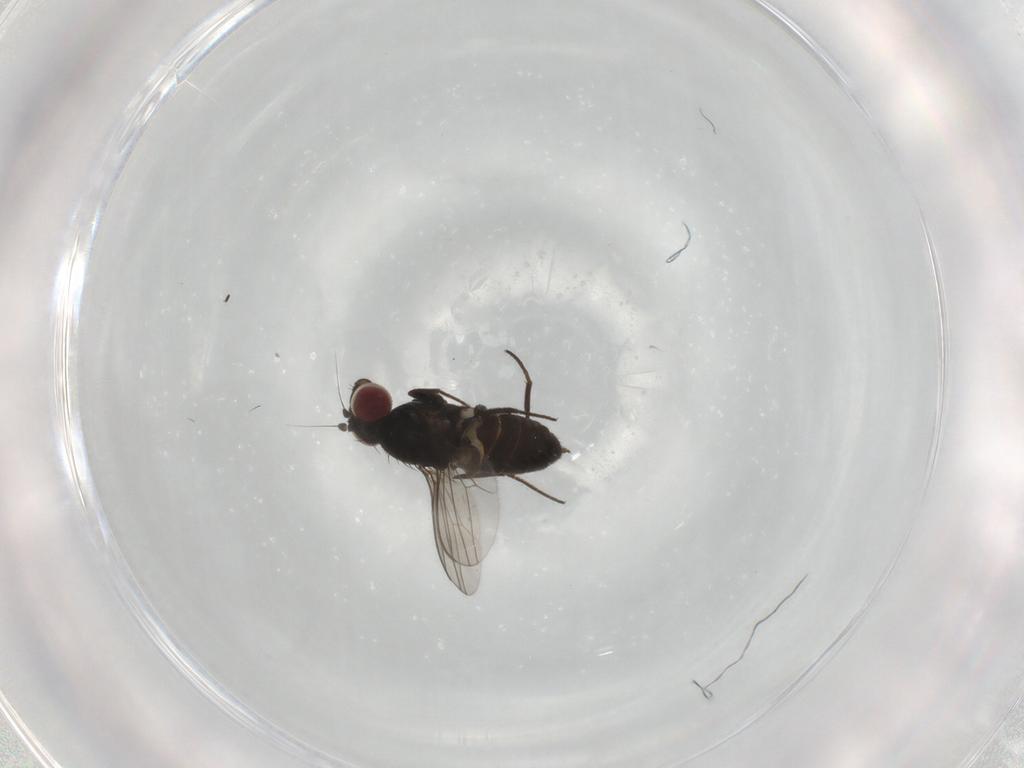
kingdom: Animalia
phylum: Arthropoda
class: Insecta
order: Diptera
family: Dolichopodidae
